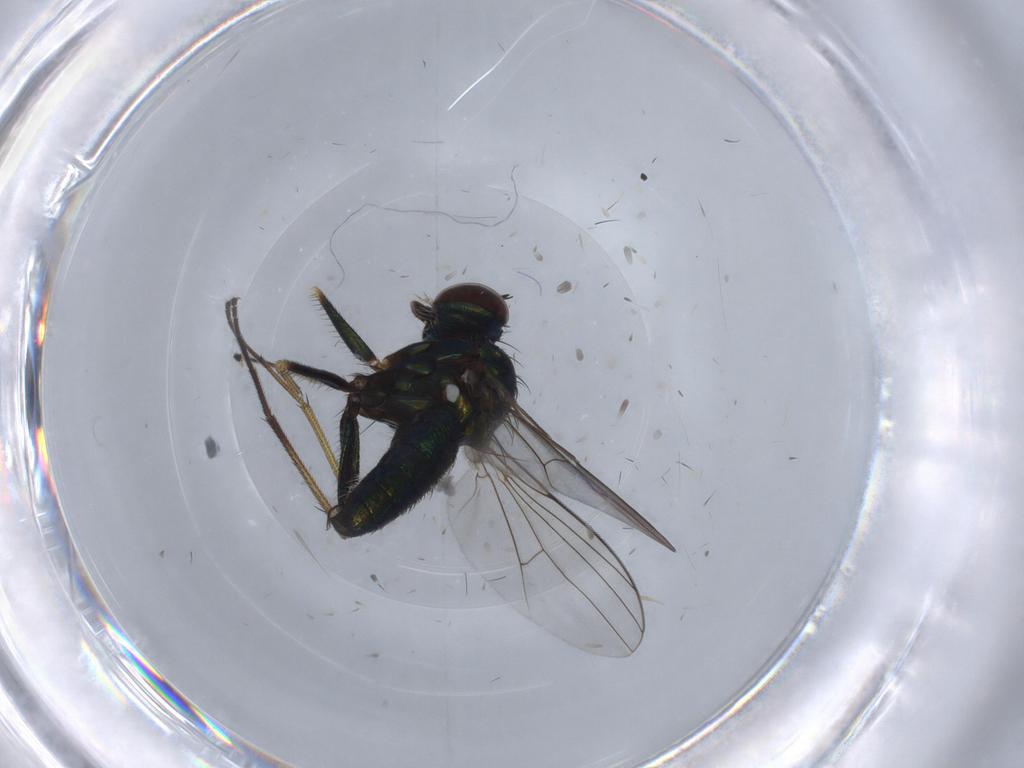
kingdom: Animalia
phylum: Arthropoda
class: Insecta
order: Diptera
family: Dolichopodidae
